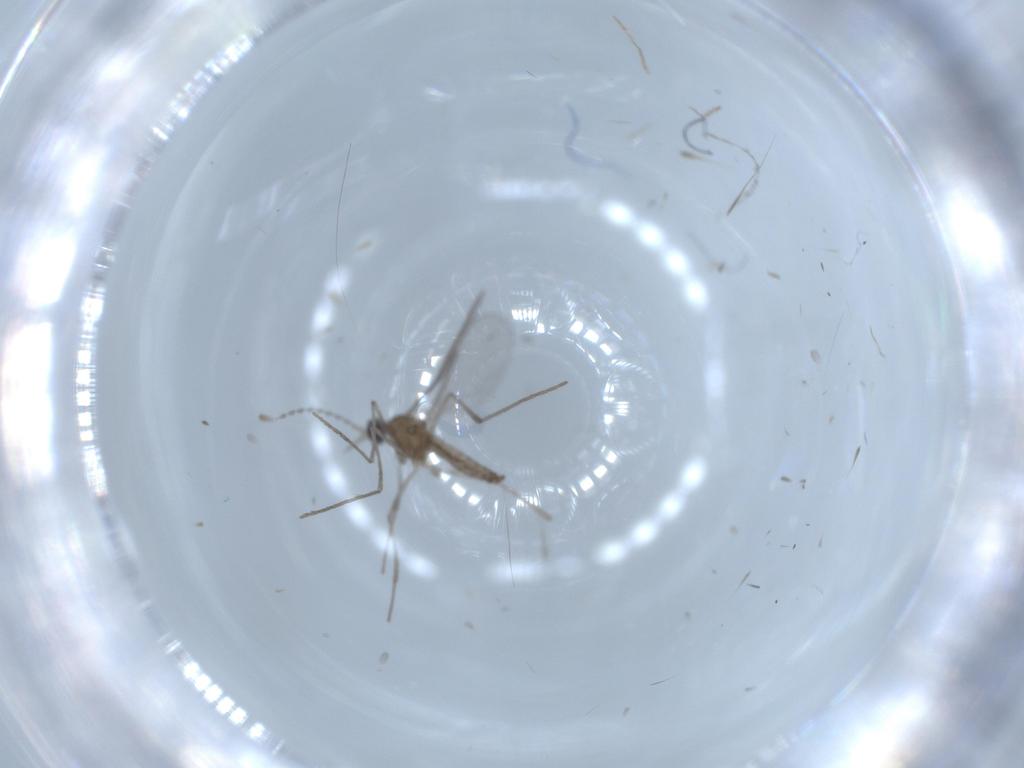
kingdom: Animalia
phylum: Arthropoda
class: Insecta
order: Diptera
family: Cecidomyiidae
